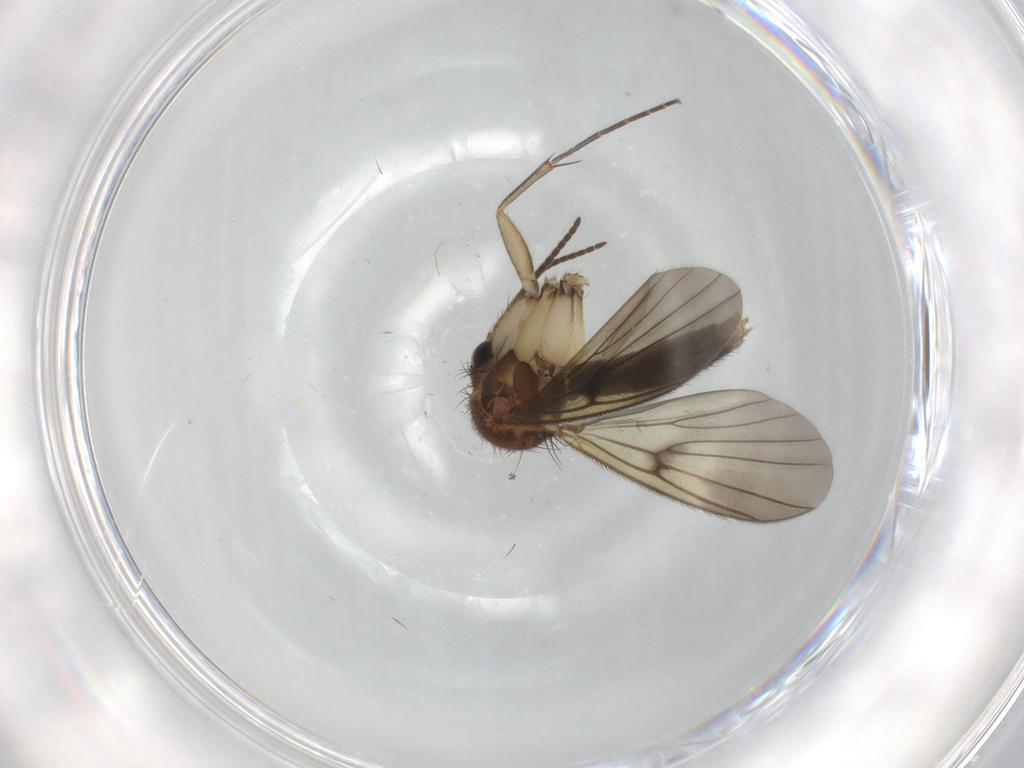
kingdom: Animalia
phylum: Arthropoda
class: Insecta
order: Diptera
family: Chironomidae
